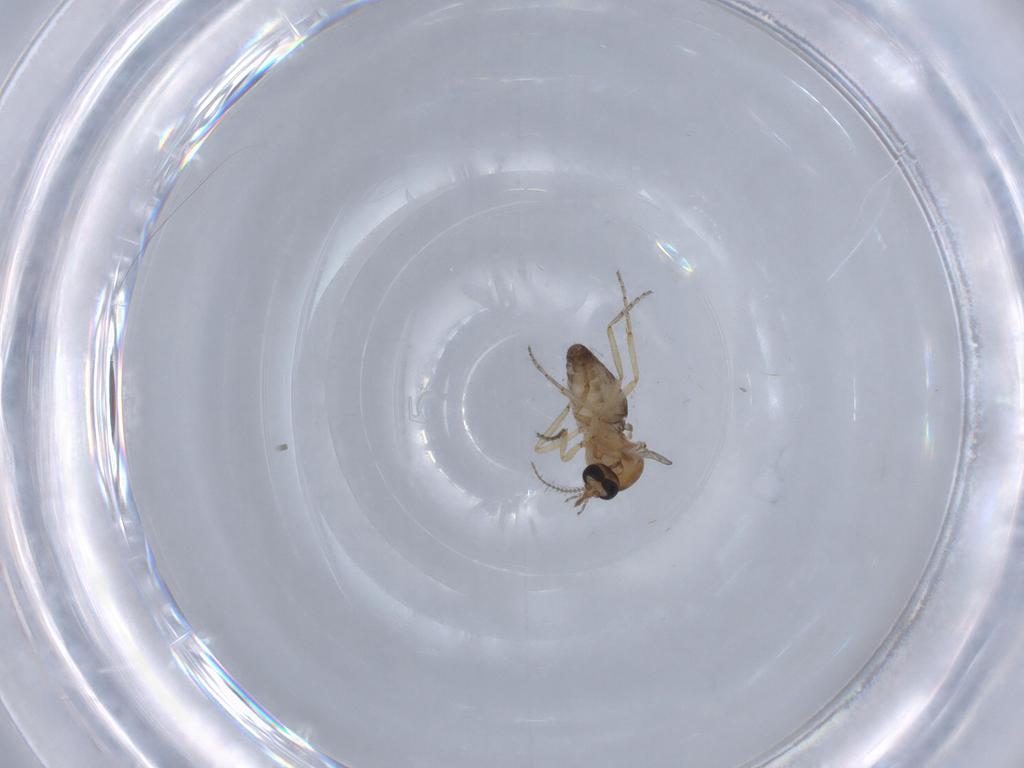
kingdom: Animalia
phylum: Arthropoda
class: Insecta
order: Diptera
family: Ceratopogonidae
